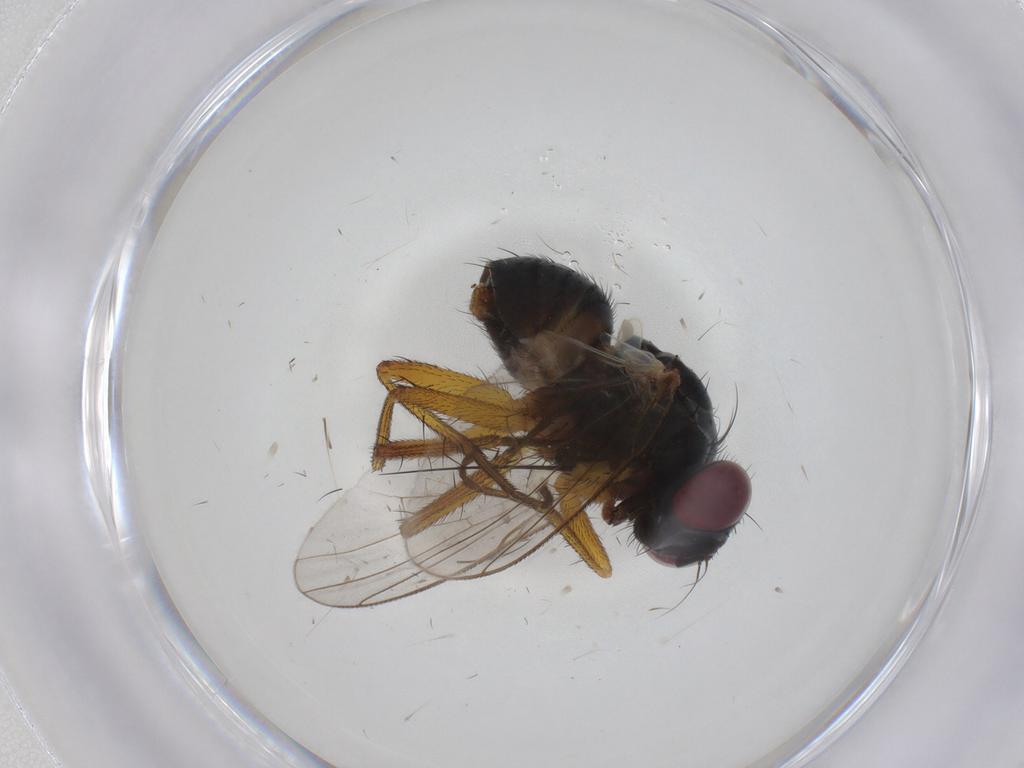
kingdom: Animalia
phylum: Arthropoda
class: Insecta
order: Diptera
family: Muscidae
